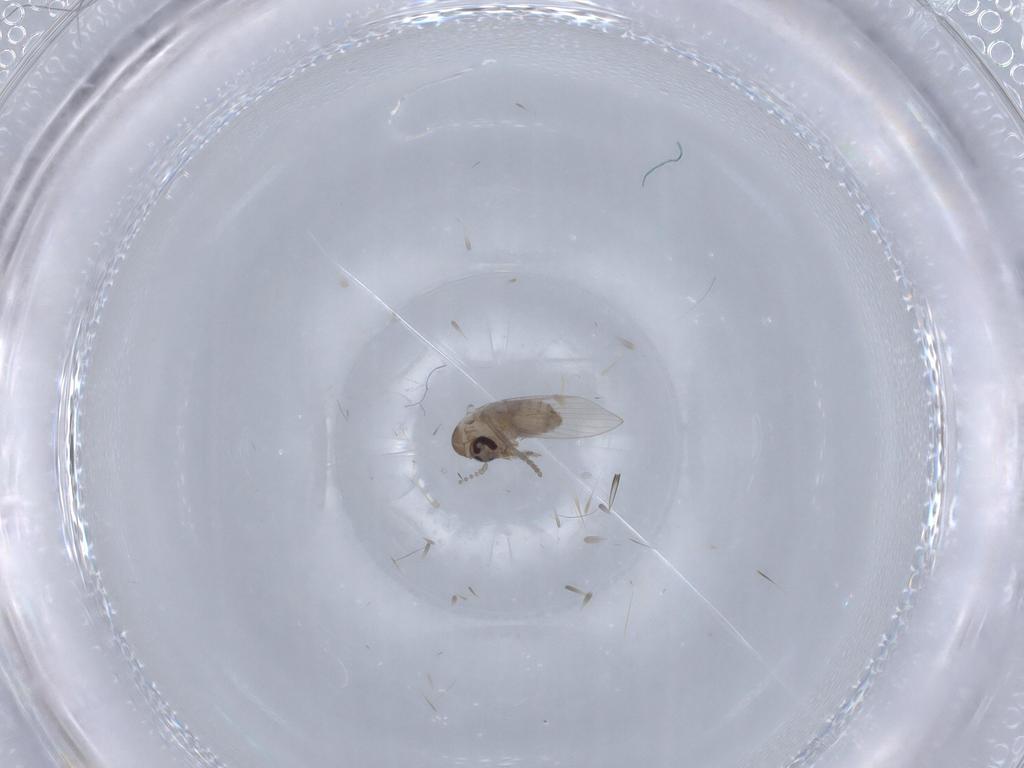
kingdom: Animalia
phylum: Arthropoda
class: Insecta
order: Diptera
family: Psychodidae
